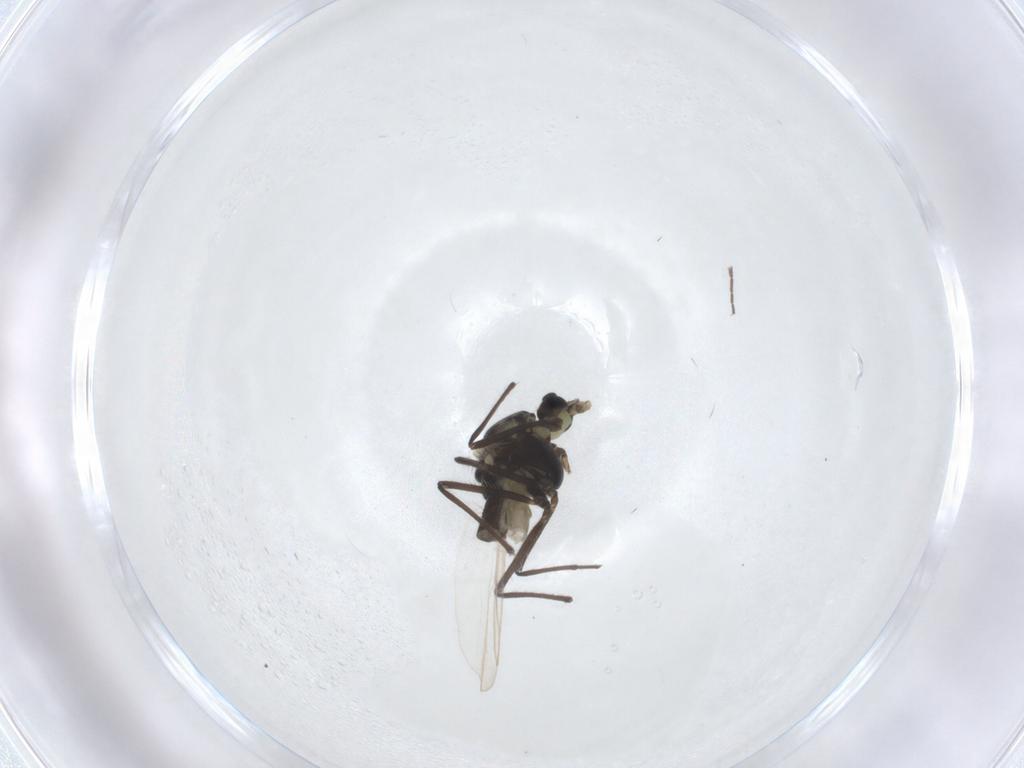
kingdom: Animalia
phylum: Arthropoda
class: Insecta
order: Diptera
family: Chironomidae
